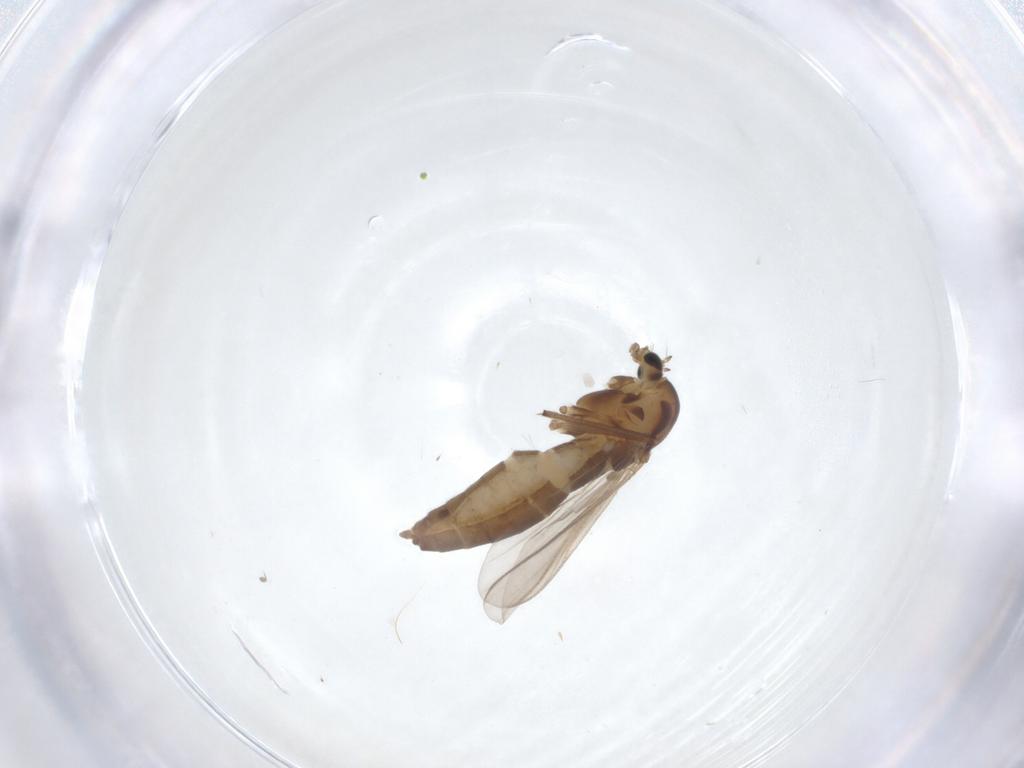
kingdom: Animalia
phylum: Arthropoda
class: Insecta
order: Diptera
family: Chironomidae
